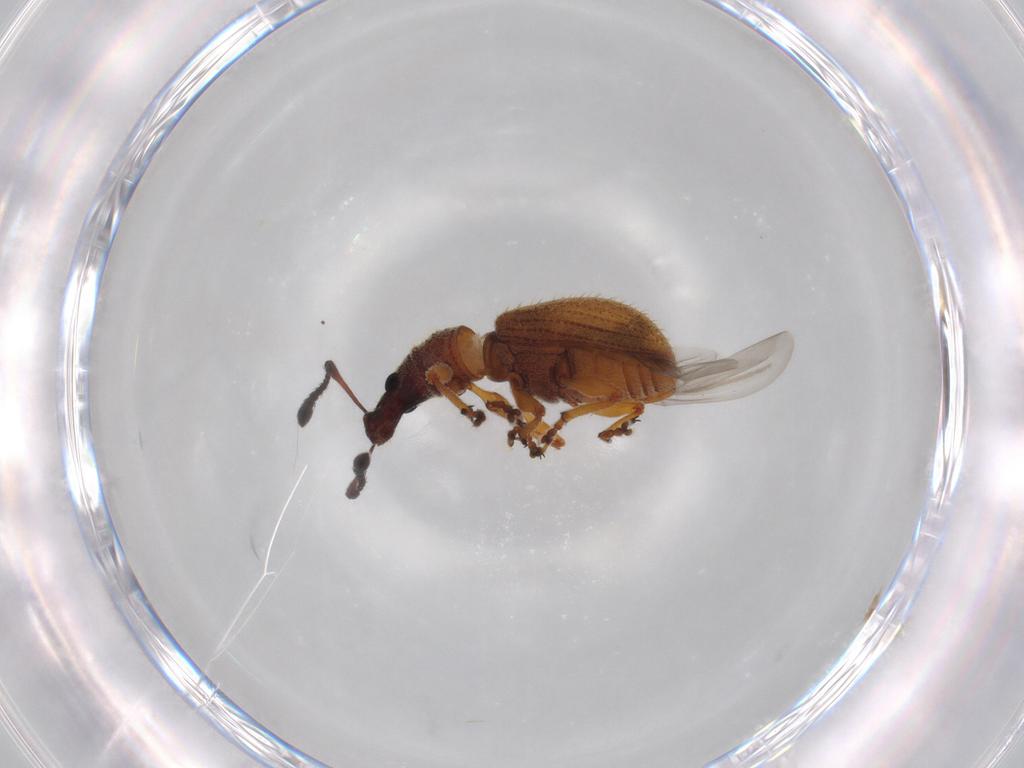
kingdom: Animalia
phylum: Arthropoda
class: Insecta
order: Coleoptera
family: Curculionidae
